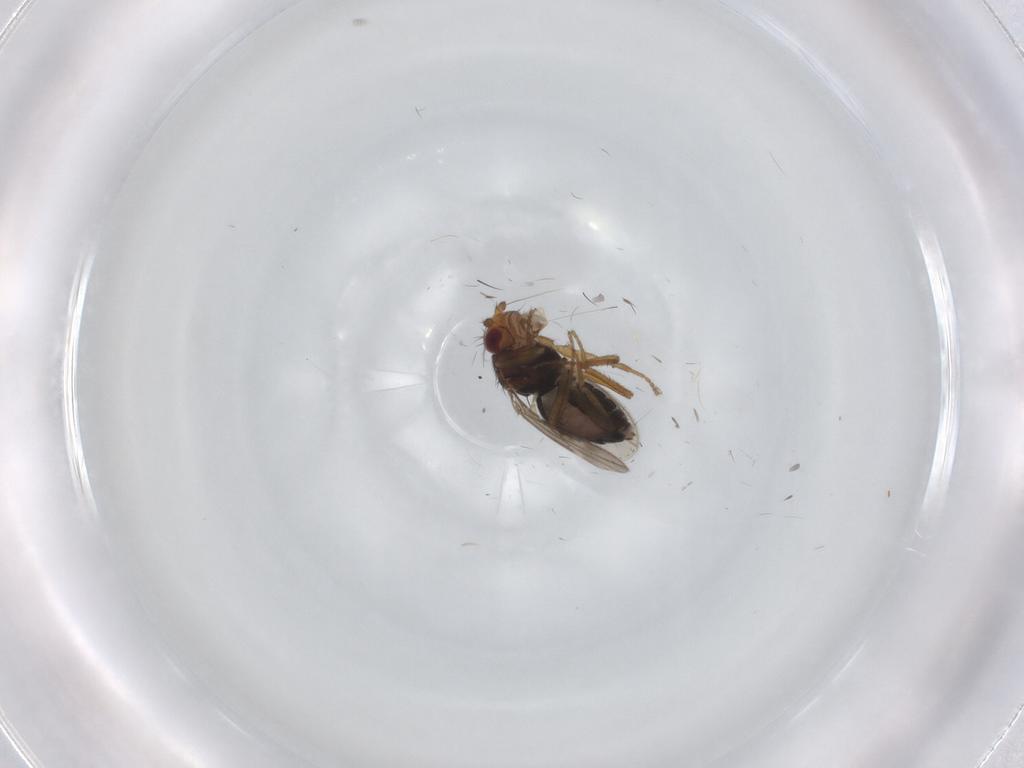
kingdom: Animalia
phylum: Arthropoda
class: Insecta
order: Diptera
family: Sphaeroceridae
